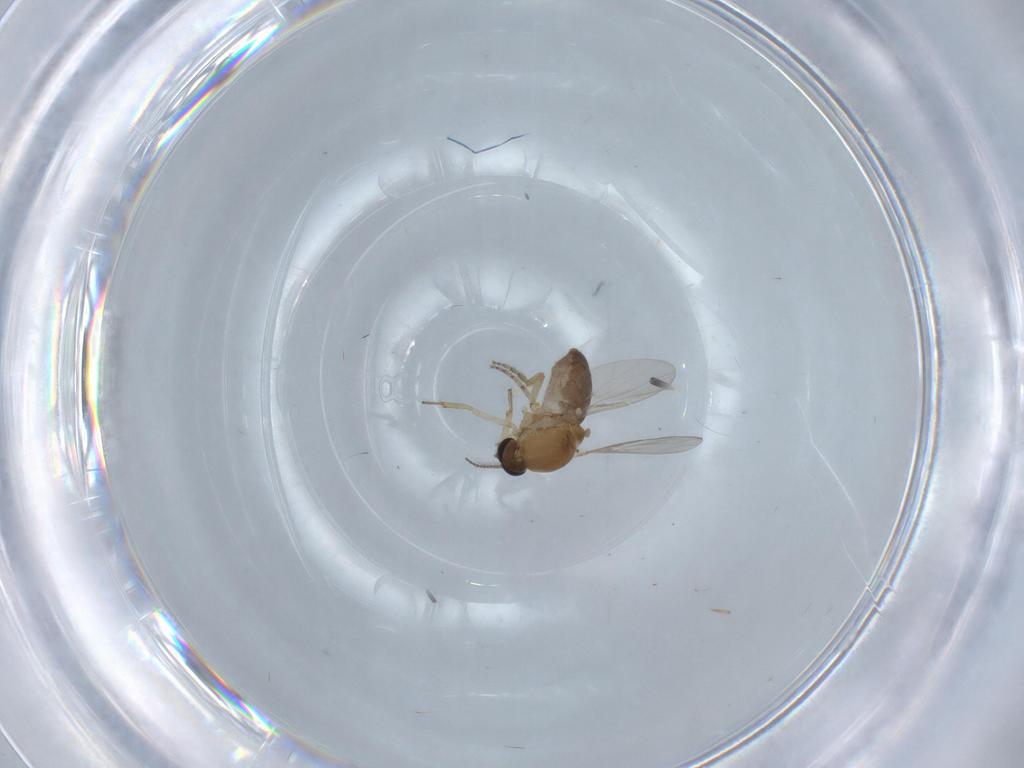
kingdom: Animalia
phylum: Arthropoda
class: Insecta
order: Diptera
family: Ceratopogonidae
